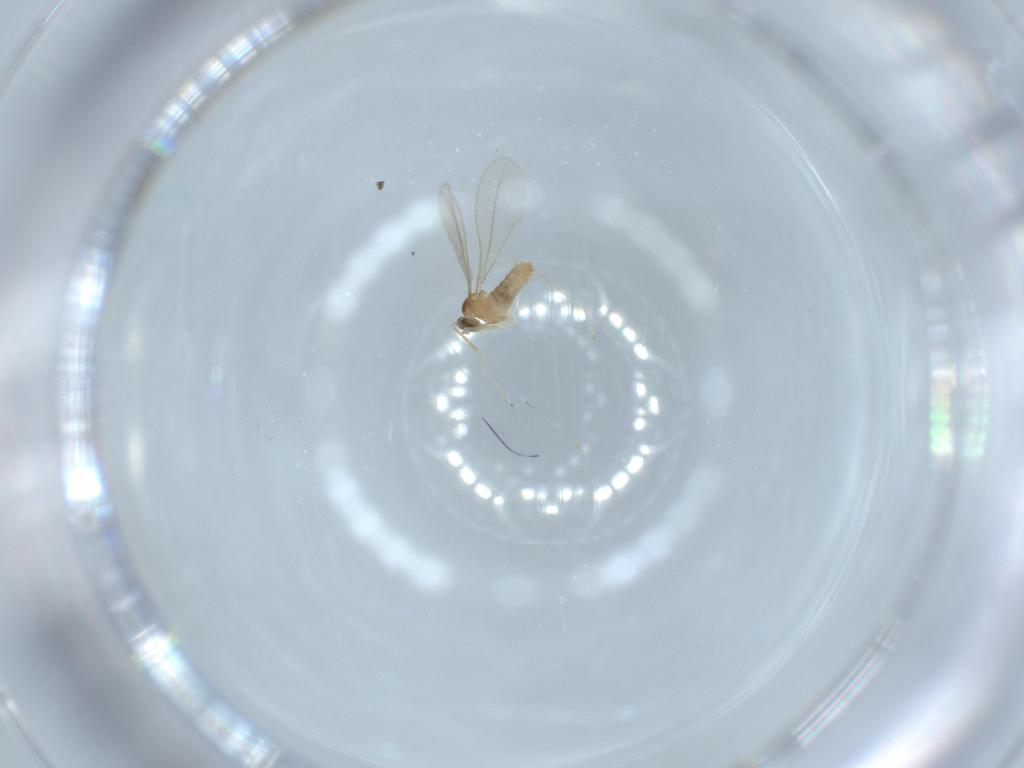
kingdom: Animalia
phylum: Arthropoda
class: Insecta
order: Diptera
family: Cecidomyiidae
